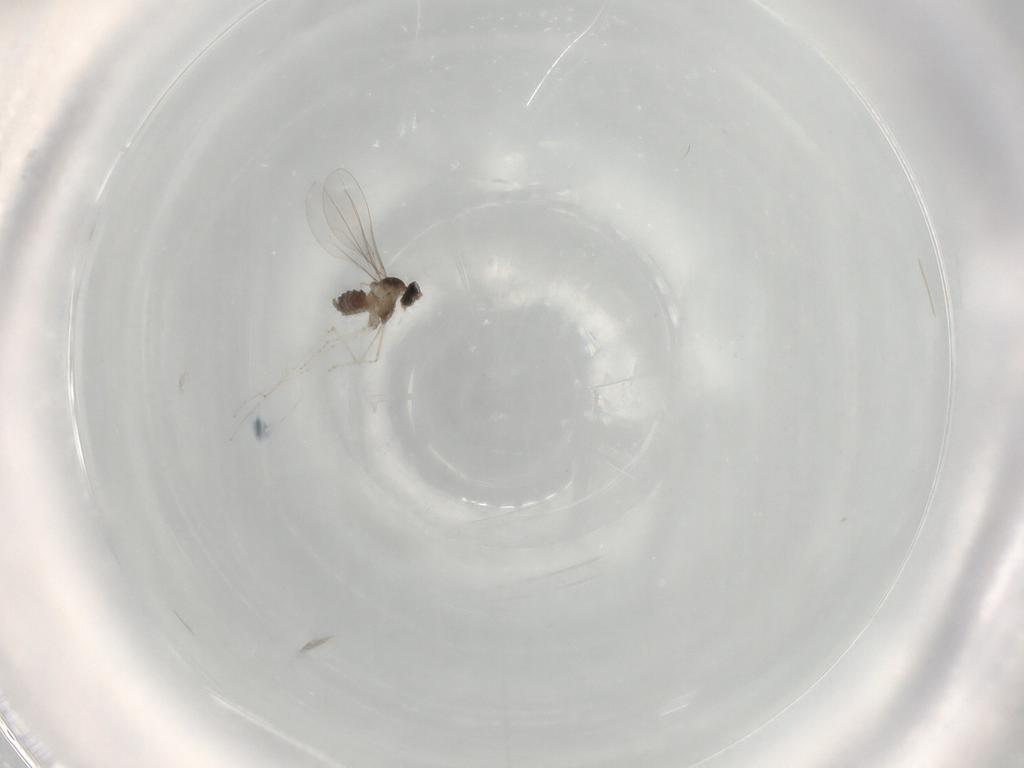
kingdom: Animalia
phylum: Arthropoda
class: Insecta
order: Diptera
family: Cecidomyiidae
